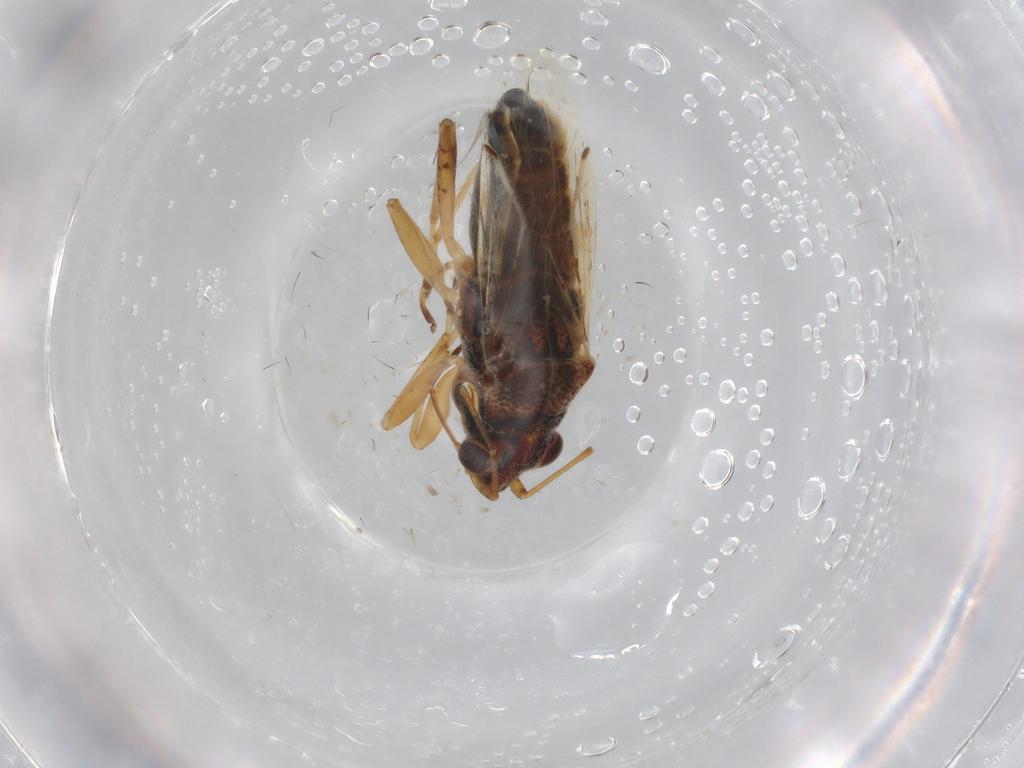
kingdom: Animalia
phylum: Arthropoda
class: Insecta
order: Hemiptera
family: Lygaeidae
